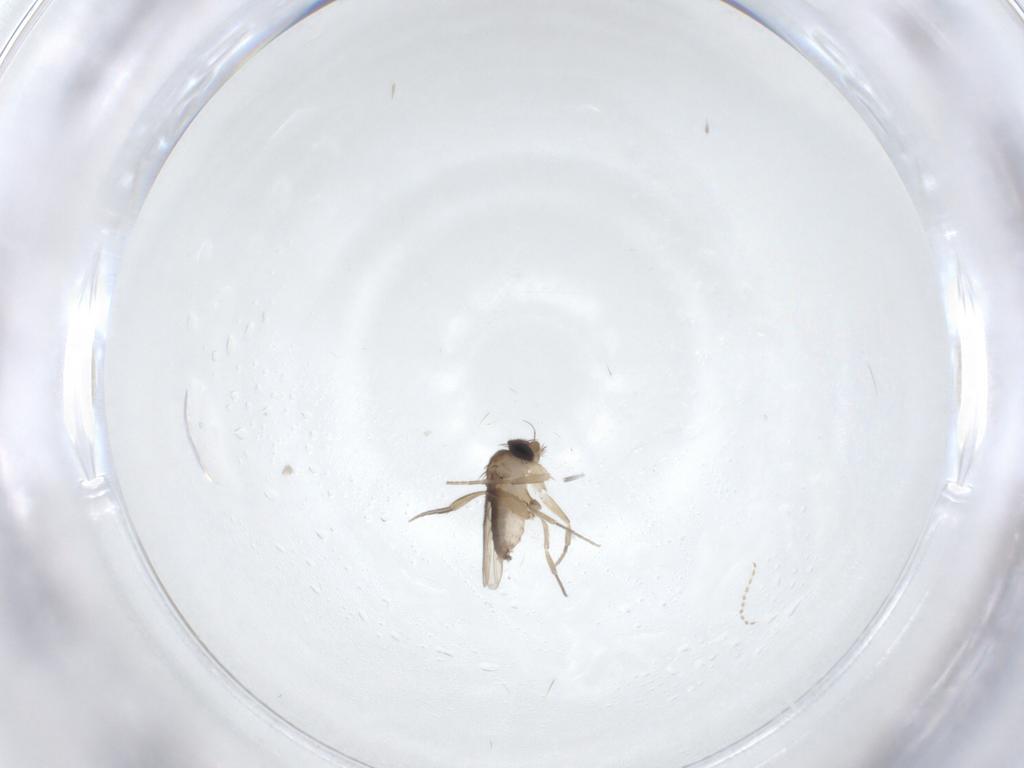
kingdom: Animalia
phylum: Arthropoda
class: Insecta
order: Diptera
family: Phoridae
